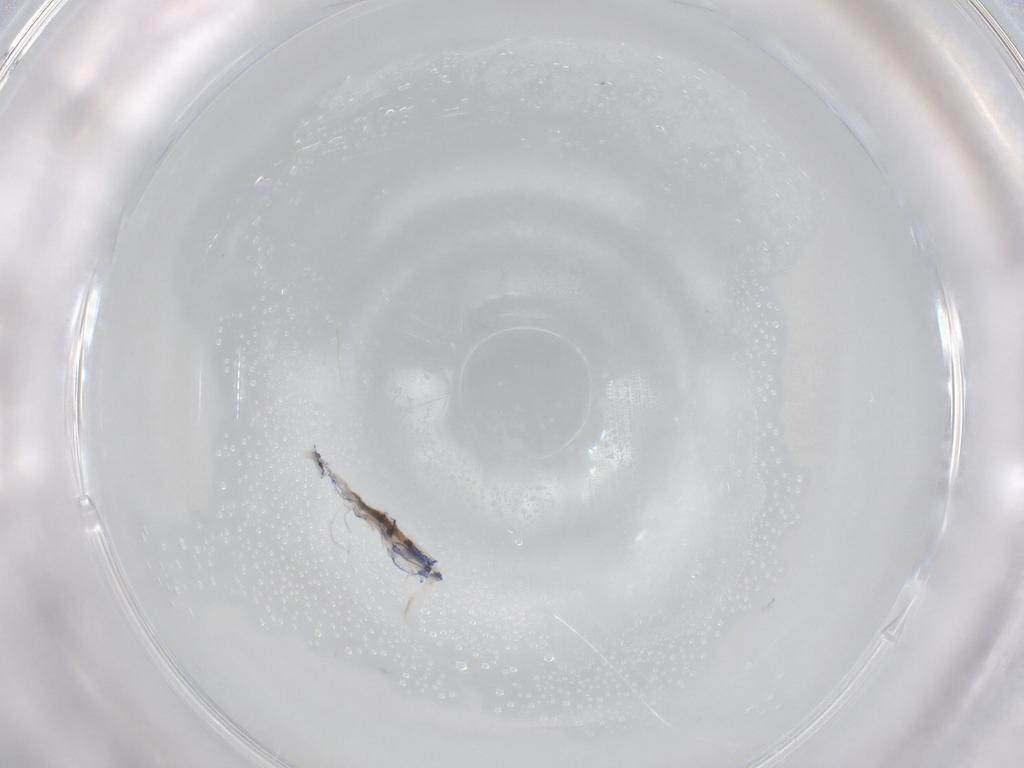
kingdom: Animalia
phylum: Arthropoda
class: Collembola
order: Entomobryomorpha
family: Entomobryidae
